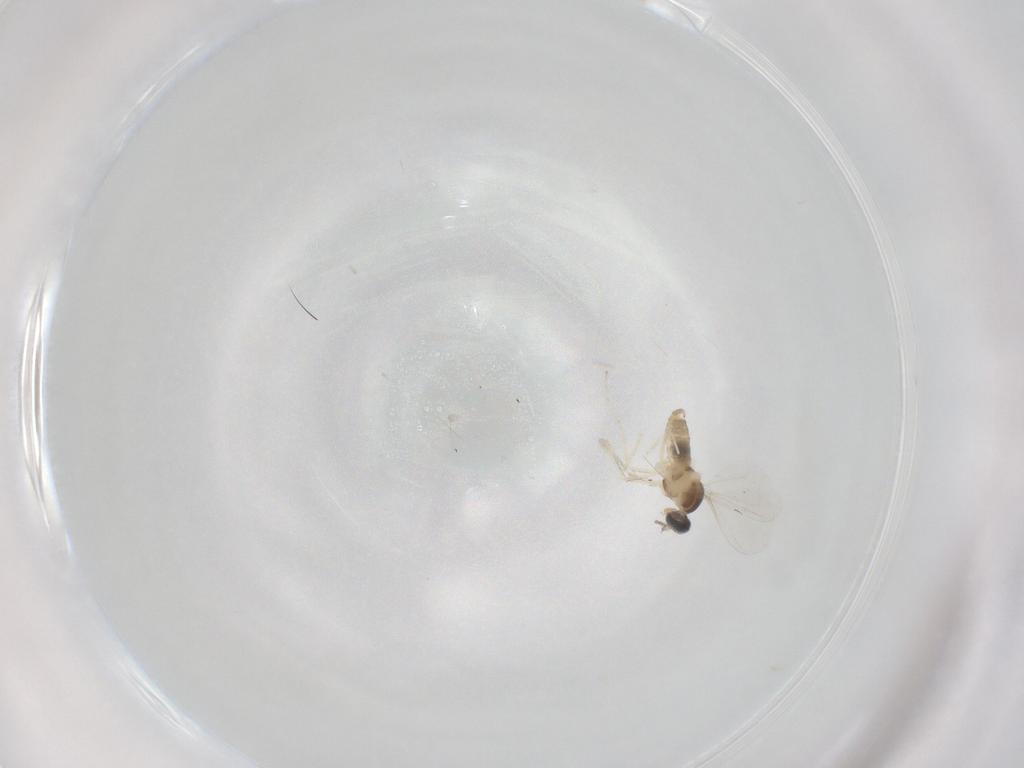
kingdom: Animalia
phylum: Arthropoda
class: Insecta
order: Diptera
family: Cecidomyiidae
